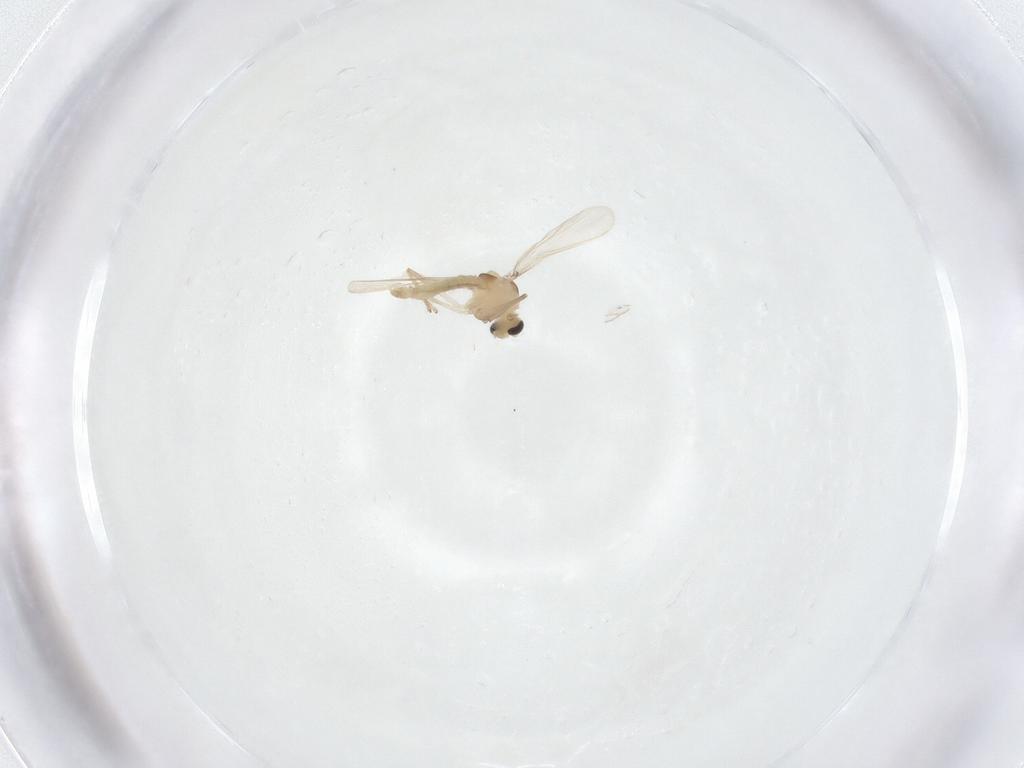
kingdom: Animalia
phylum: Arthropoda
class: Insecta
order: Diptera
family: Chironomidae
